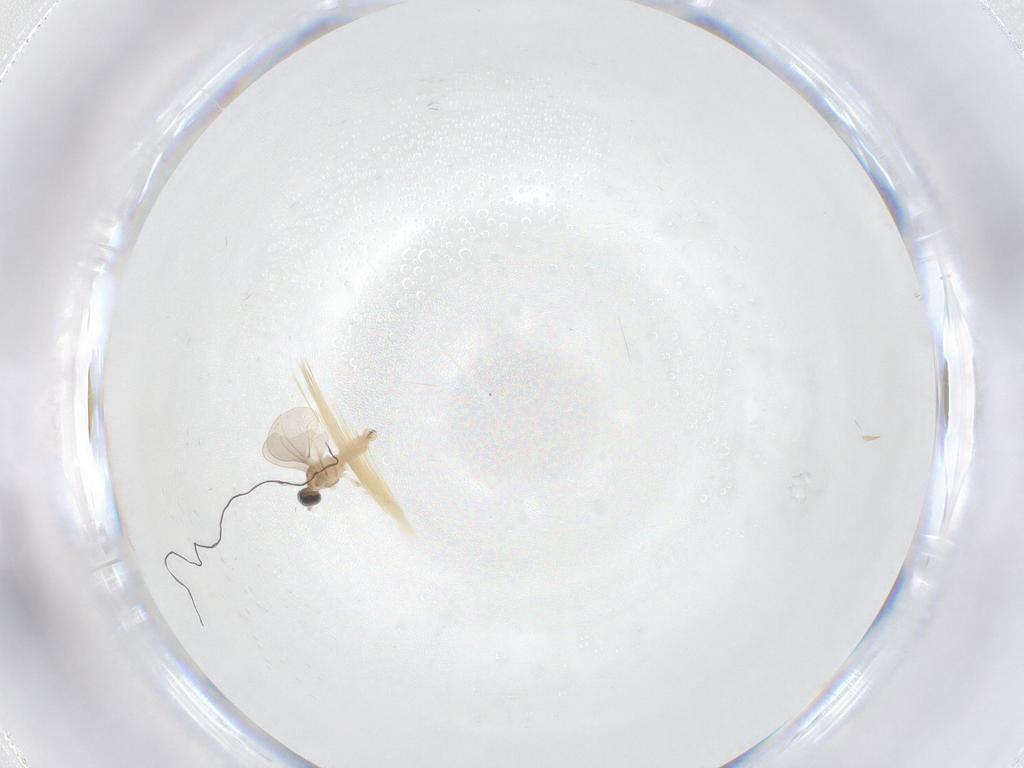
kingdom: Animalia
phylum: Arthropoda
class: Insecta
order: Diptera
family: Cecidomyiidae
